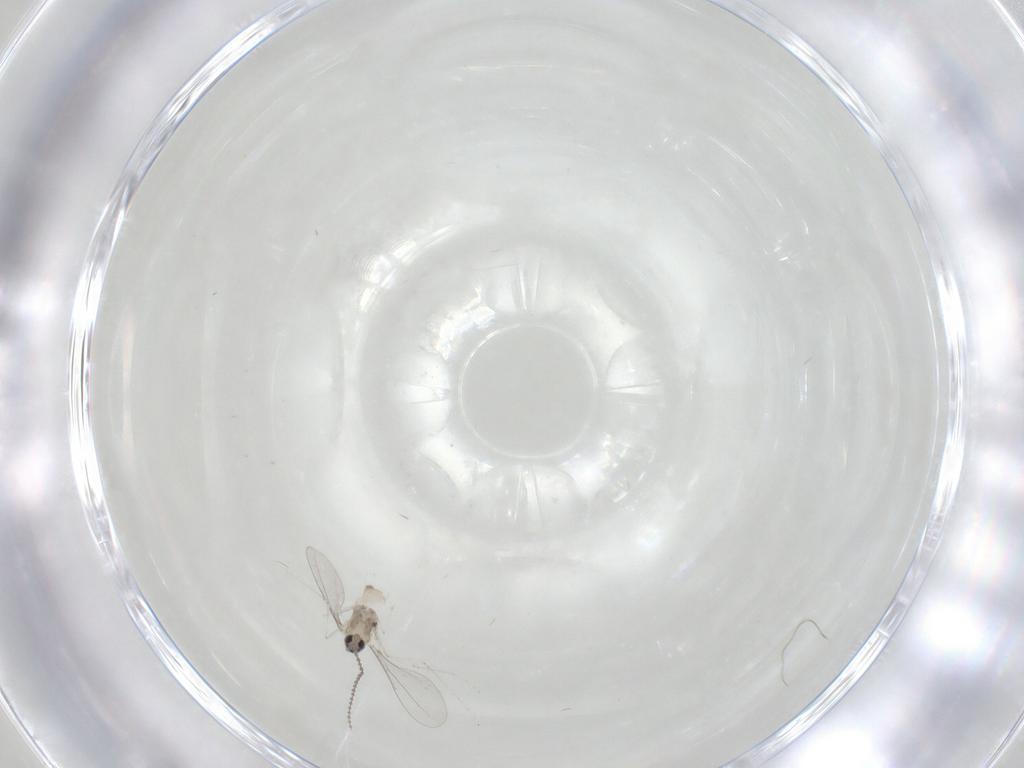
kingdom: Animalia
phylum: Arthropoda
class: Insecta
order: Diptera
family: Cecidomyiidae
